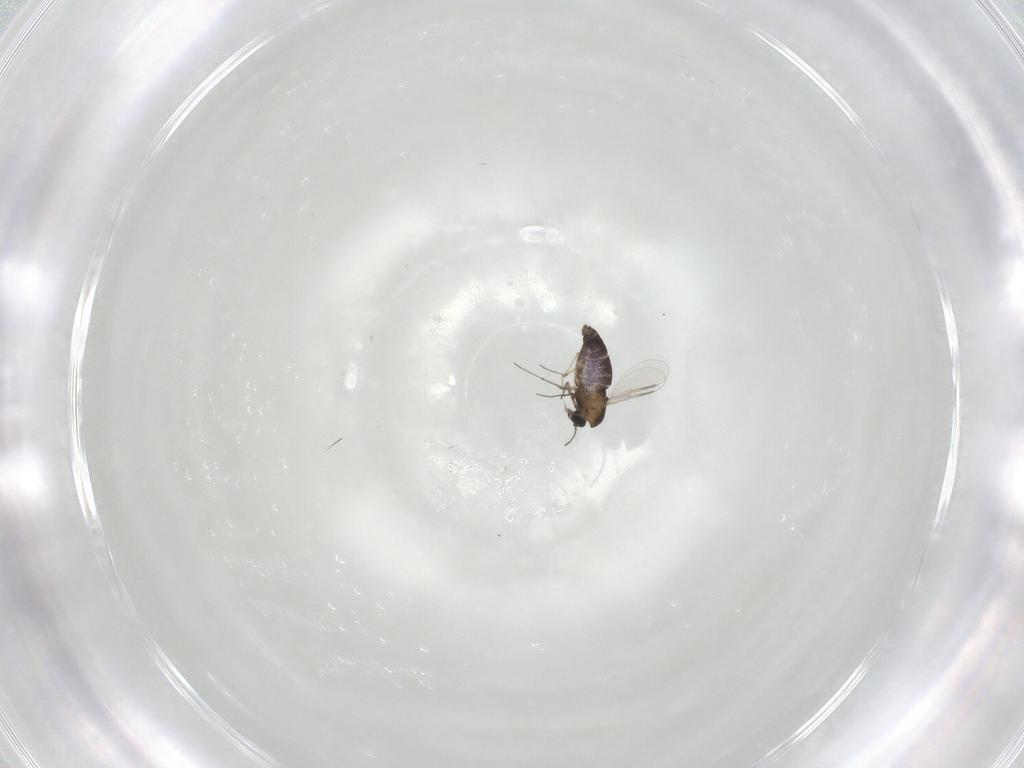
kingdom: Animalia
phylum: Arthropoda
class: Insecta
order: Diptera
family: Chironomidae
